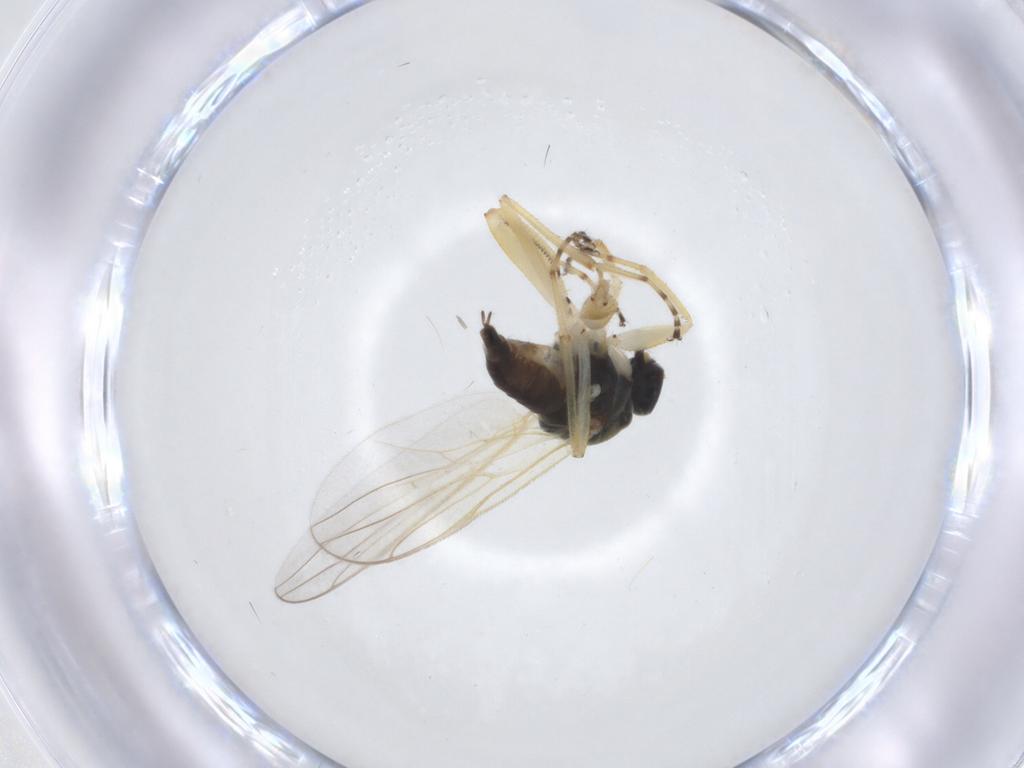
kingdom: Animalia
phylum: Arthropoda
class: Insecta
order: Diptera
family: Hybotidae
